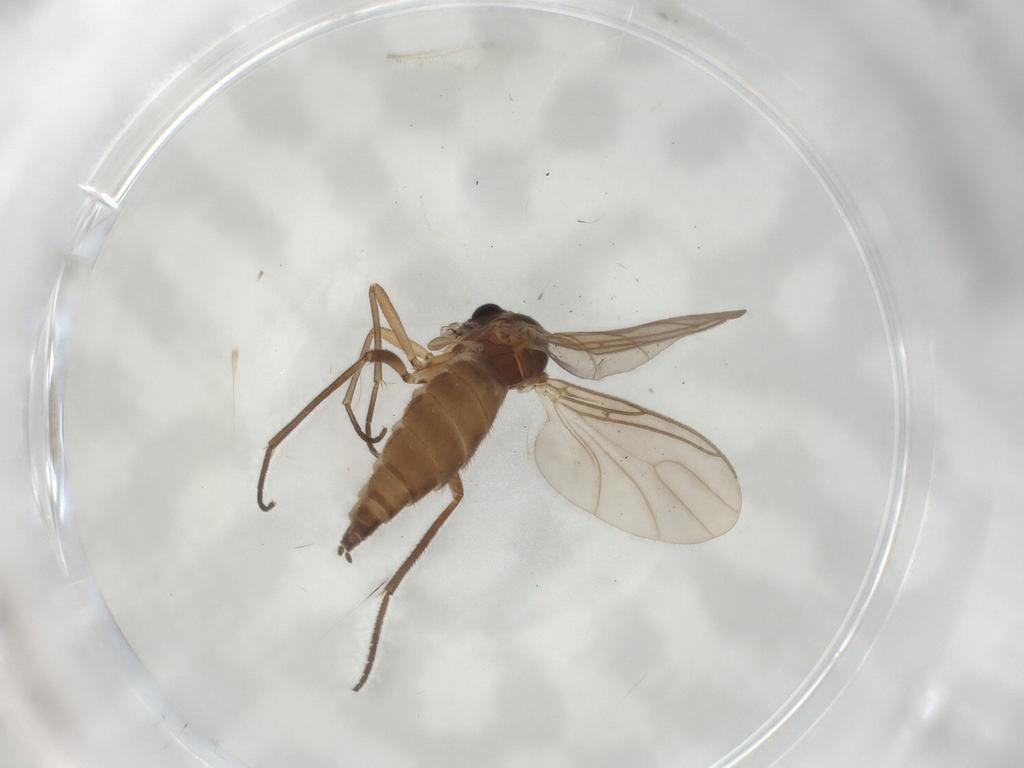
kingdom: Animalia
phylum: Arthropoda
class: Insecta
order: Diptera
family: Sciaridae
